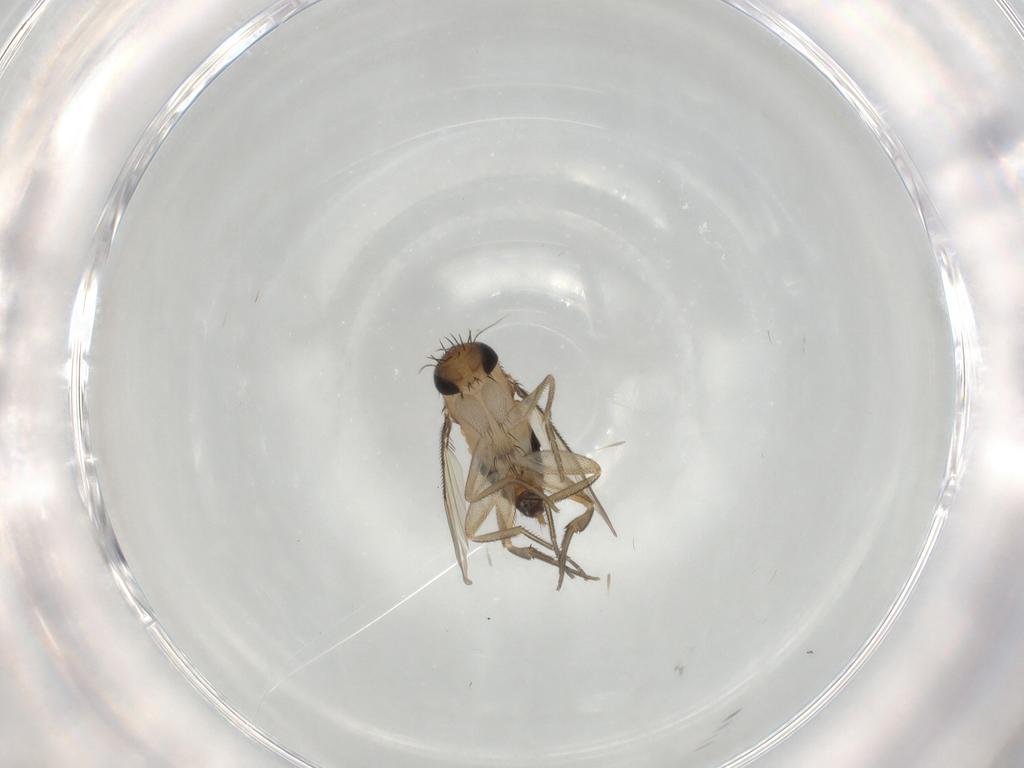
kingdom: Animalia
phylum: Arthropoda
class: Insecta
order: Diptera
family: Phoridae
